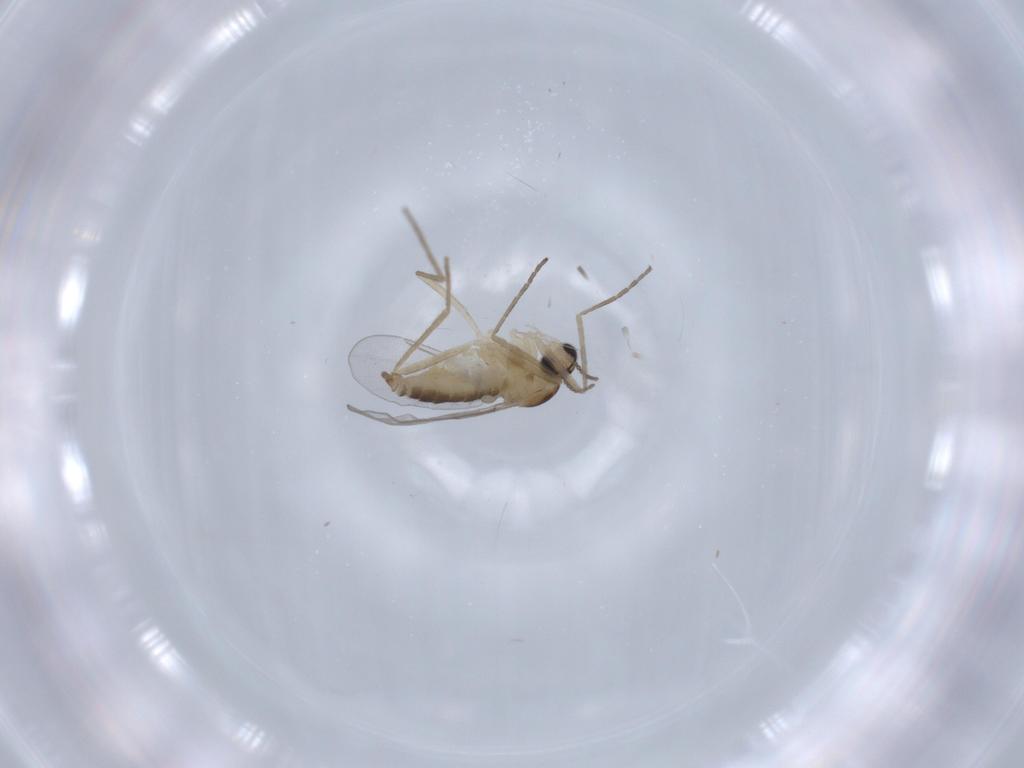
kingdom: Animalia
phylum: Arthropoda
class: Insecta
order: Diptera
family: Cecidomyiidae
